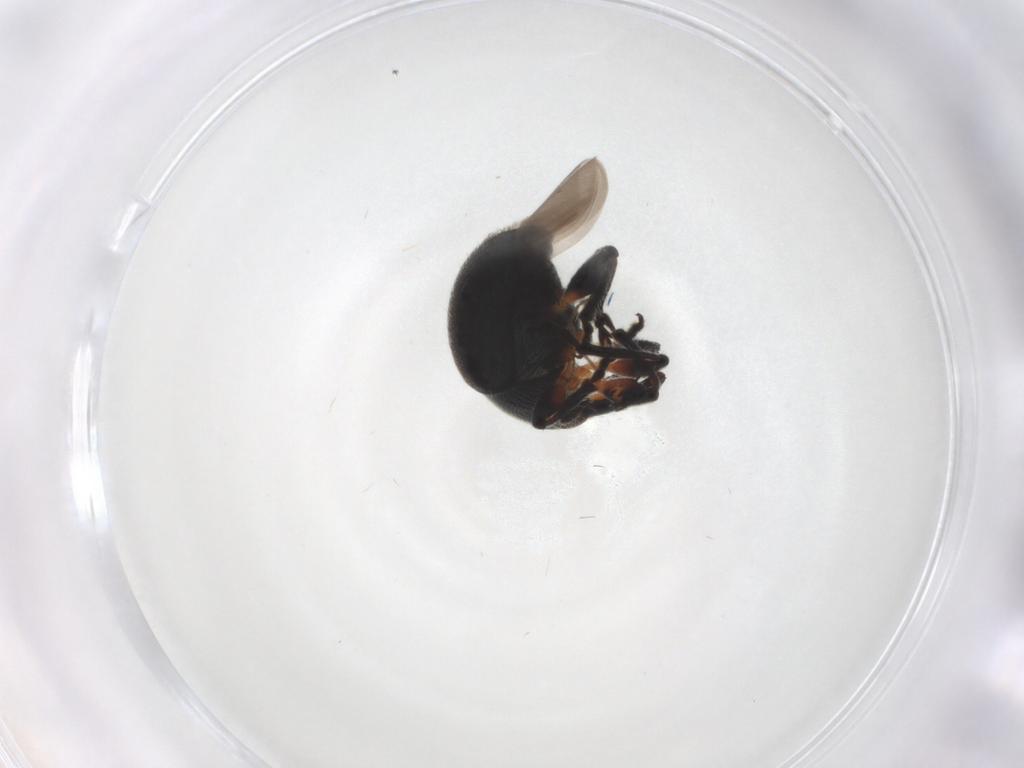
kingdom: Animalia
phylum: Arthropoda
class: Insecta
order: Coleoptera
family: Brentidae
